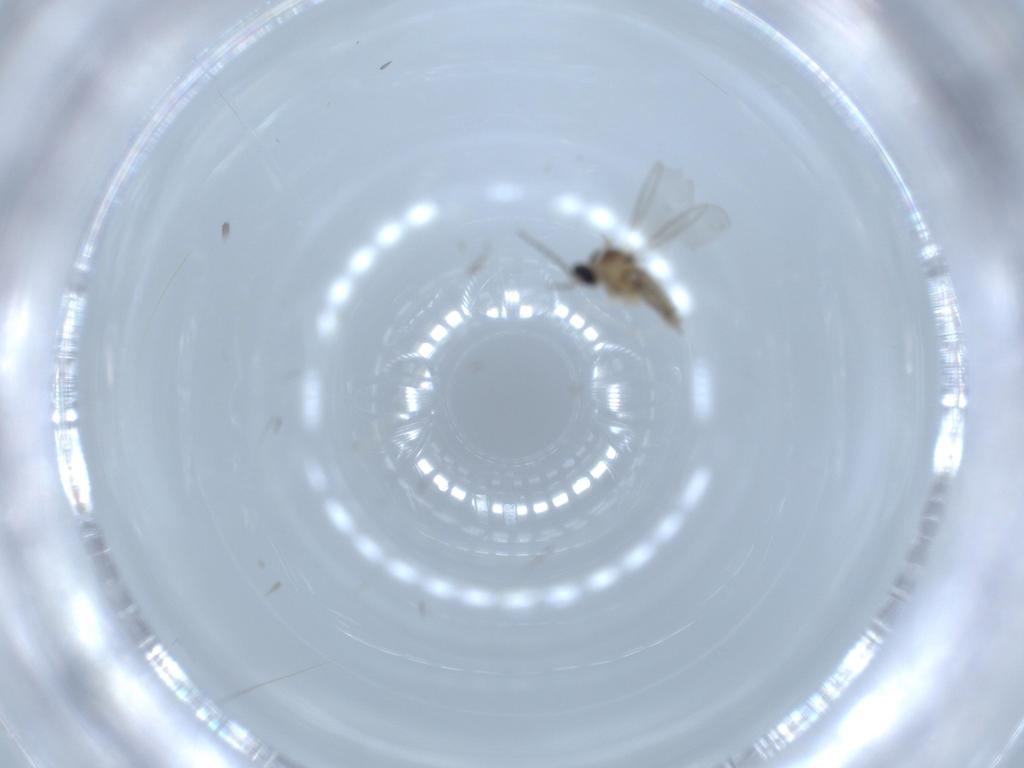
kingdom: Animalia
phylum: Arthropoda
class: Insecta
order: Diptera
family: Cecidomyiidae
